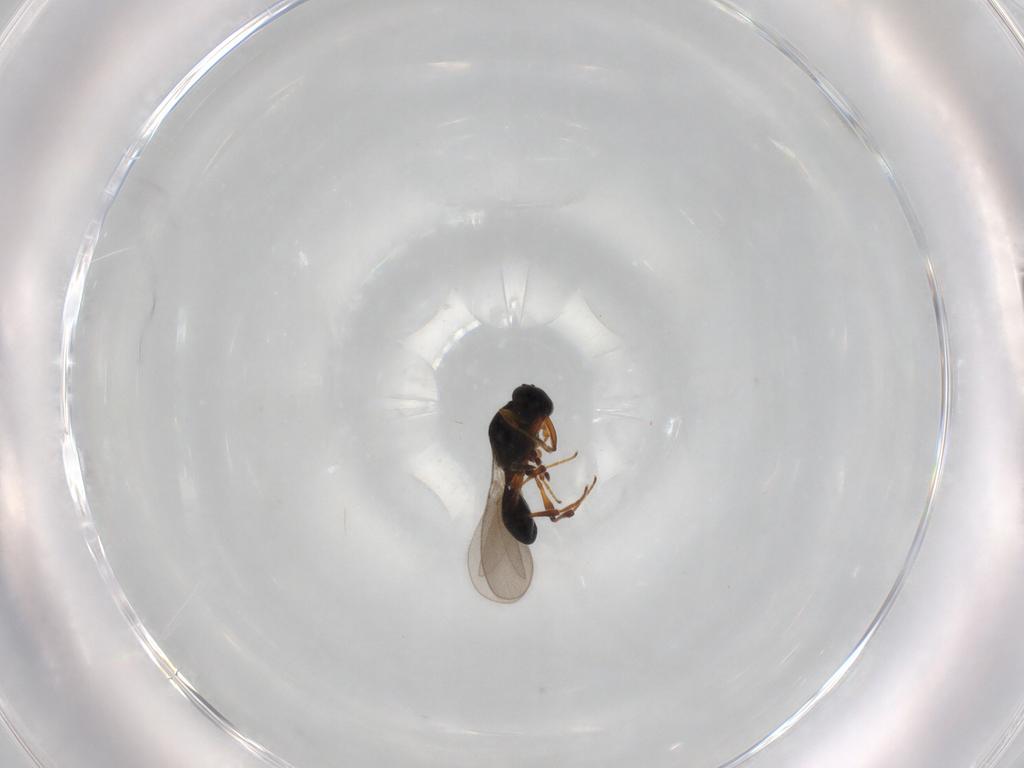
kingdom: Animalia
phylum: Arthropoda
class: Insecta
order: Hymenoptera
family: Platygastridae
